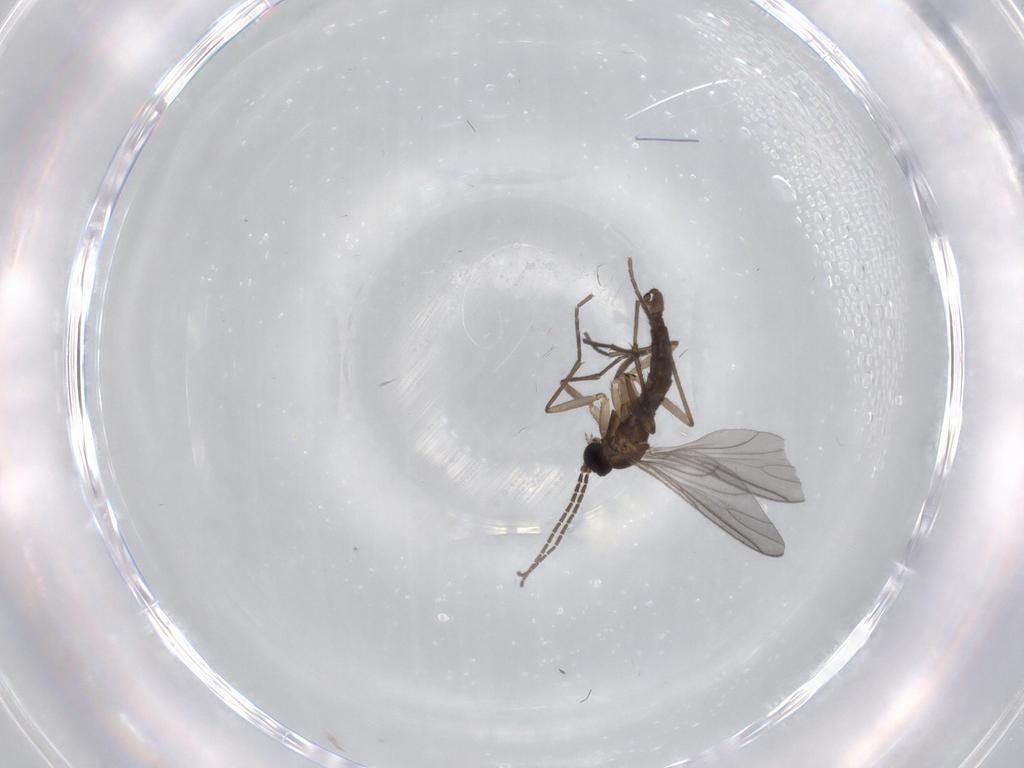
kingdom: Animalia
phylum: Arthropoda
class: Insecta
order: Diptera
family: Sciaridae
